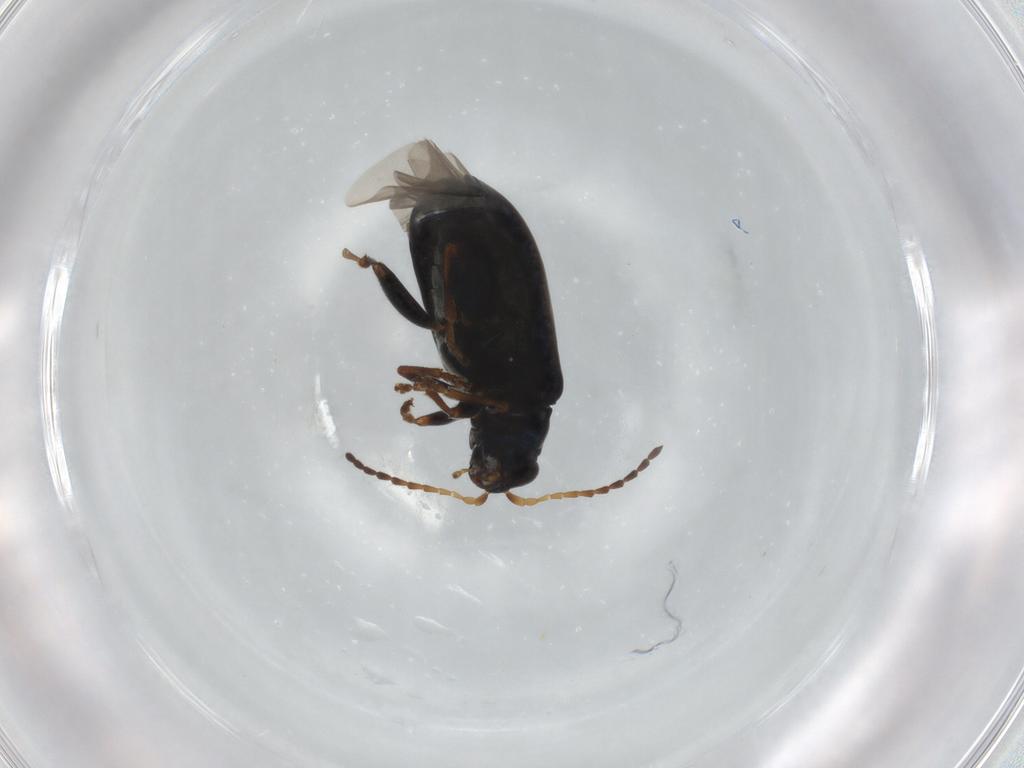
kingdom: Animalia
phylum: Arthropoda
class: Insecta
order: Coleoptera
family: Chrysomelidae
